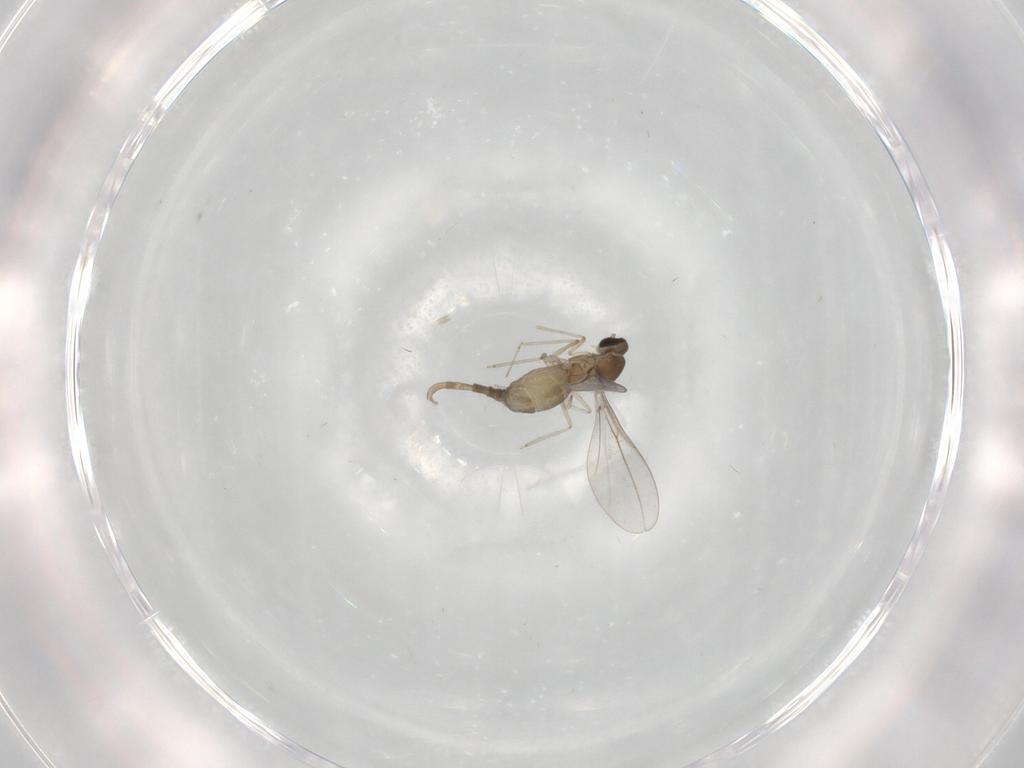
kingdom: Animalia
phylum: Arthropoda
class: Insecta
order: Diptera
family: Cecidomyiidae
